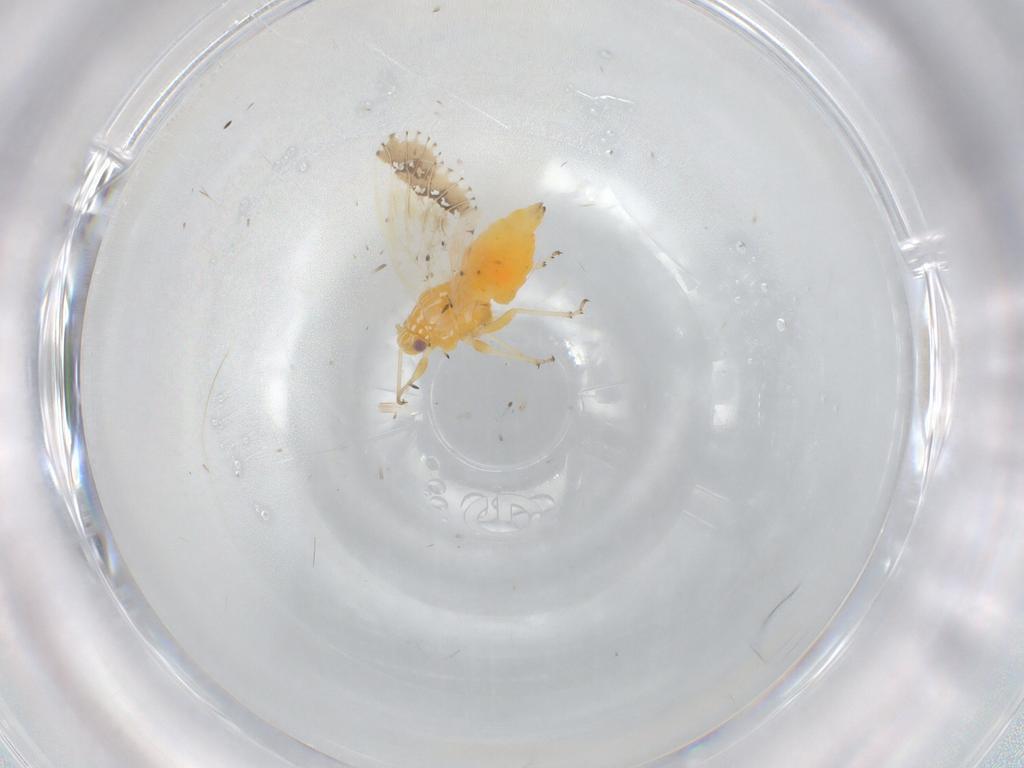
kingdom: Animalia
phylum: Arthropoda
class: Insecta
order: Hemiptera
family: Psyllidae
